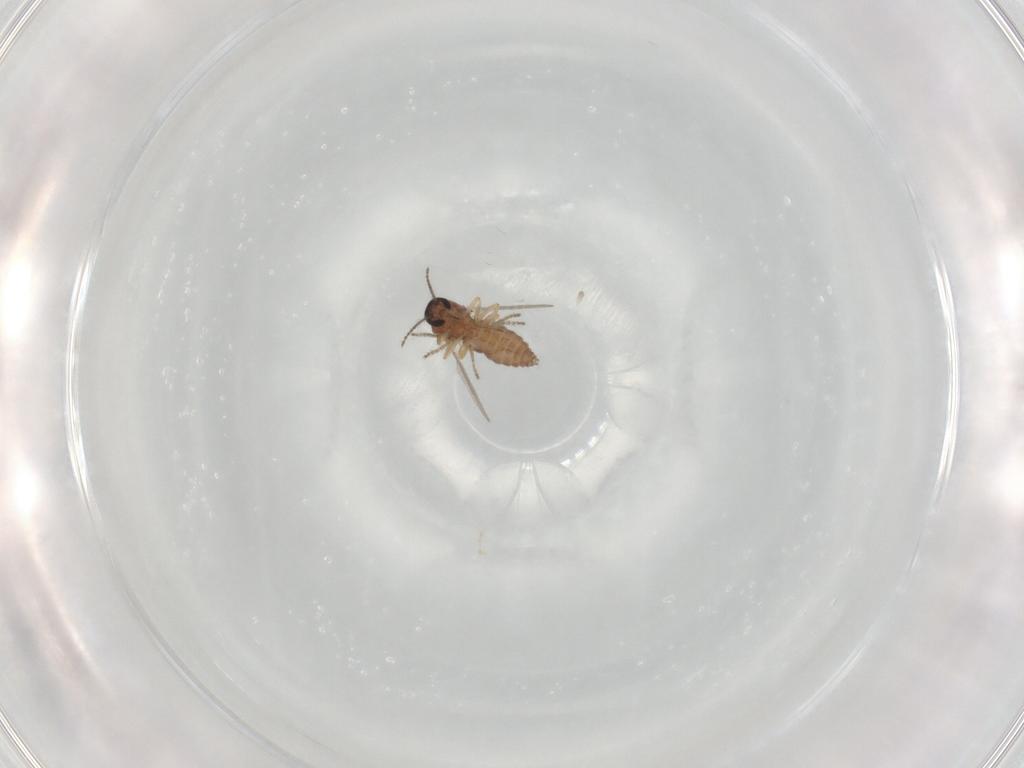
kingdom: Animalia
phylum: Arthropoda
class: Insecta
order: Diptera
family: Ceratopogonidae
